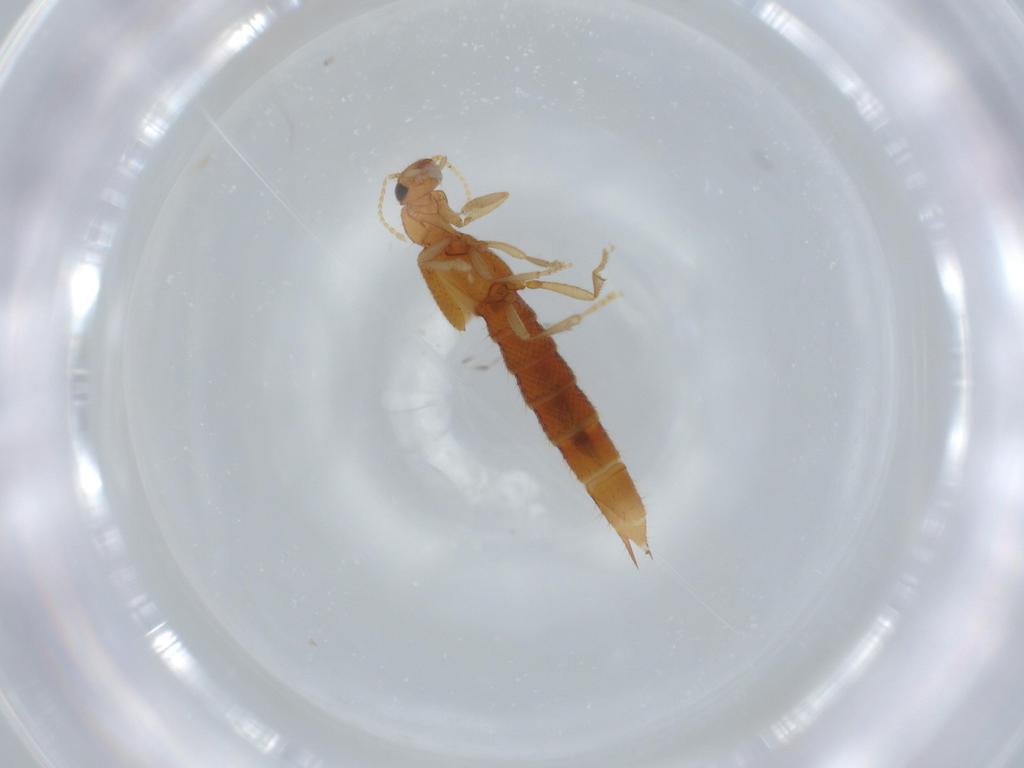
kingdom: Animalia
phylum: Arthropoda
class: Insecta
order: Coleoptera
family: Staphylinidae
